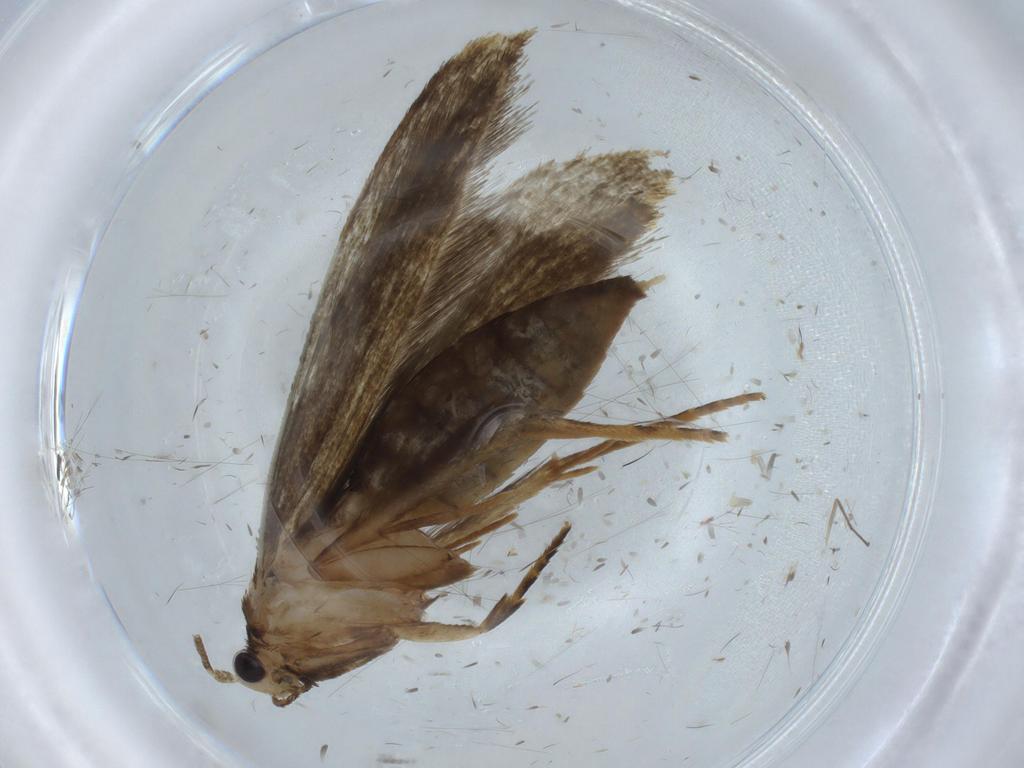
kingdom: Animalia
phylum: Arthropoda
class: Insecta
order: Lepidoptera
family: Tineidae
